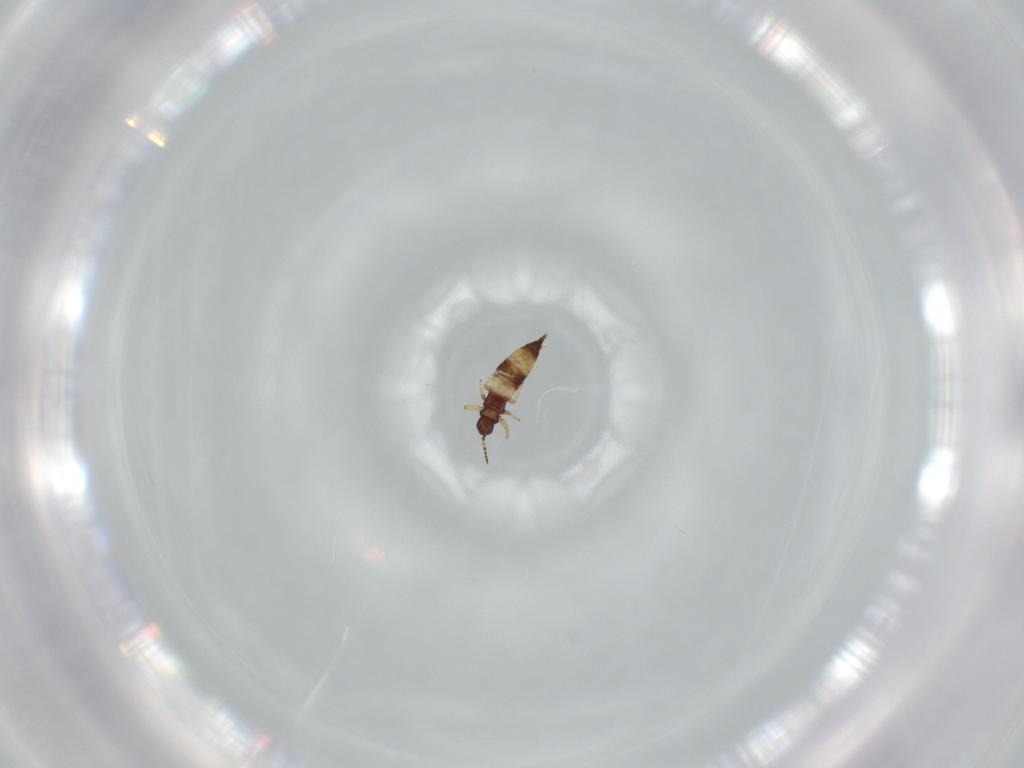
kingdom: Animalia
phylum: Arthropoda
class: Insecta
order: Thysanoptera
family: Phlaeothripidae
